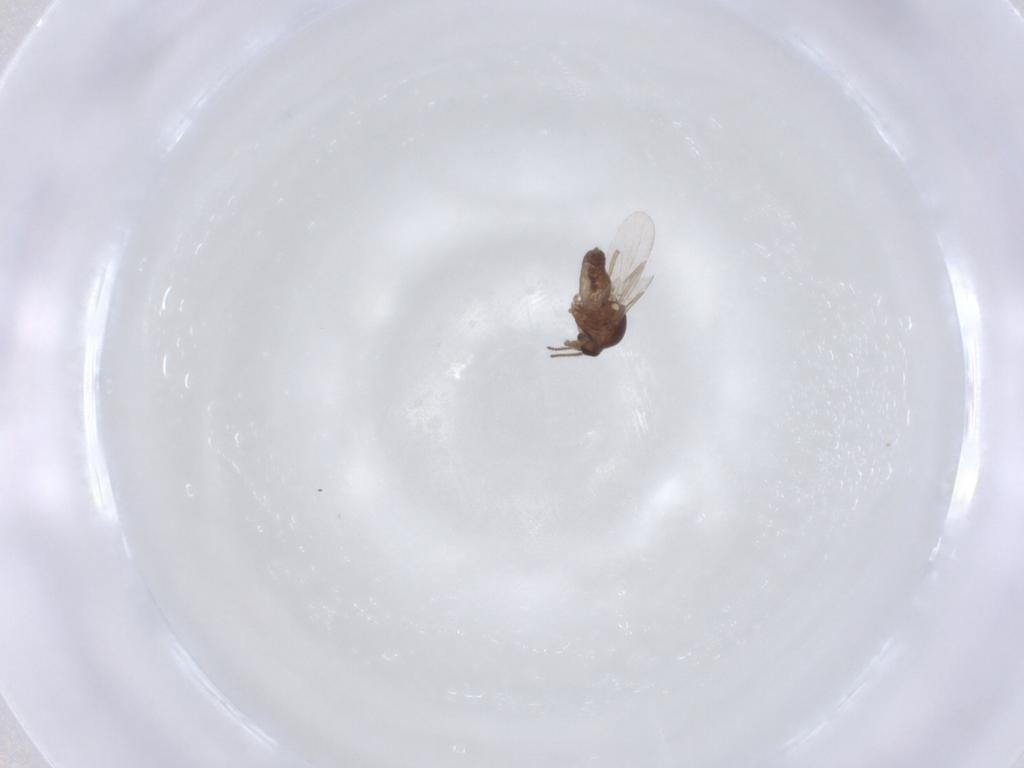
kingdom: Animalia
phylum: Arthropoda
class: Insecta
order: Diptera
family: Ceratopogonidae
